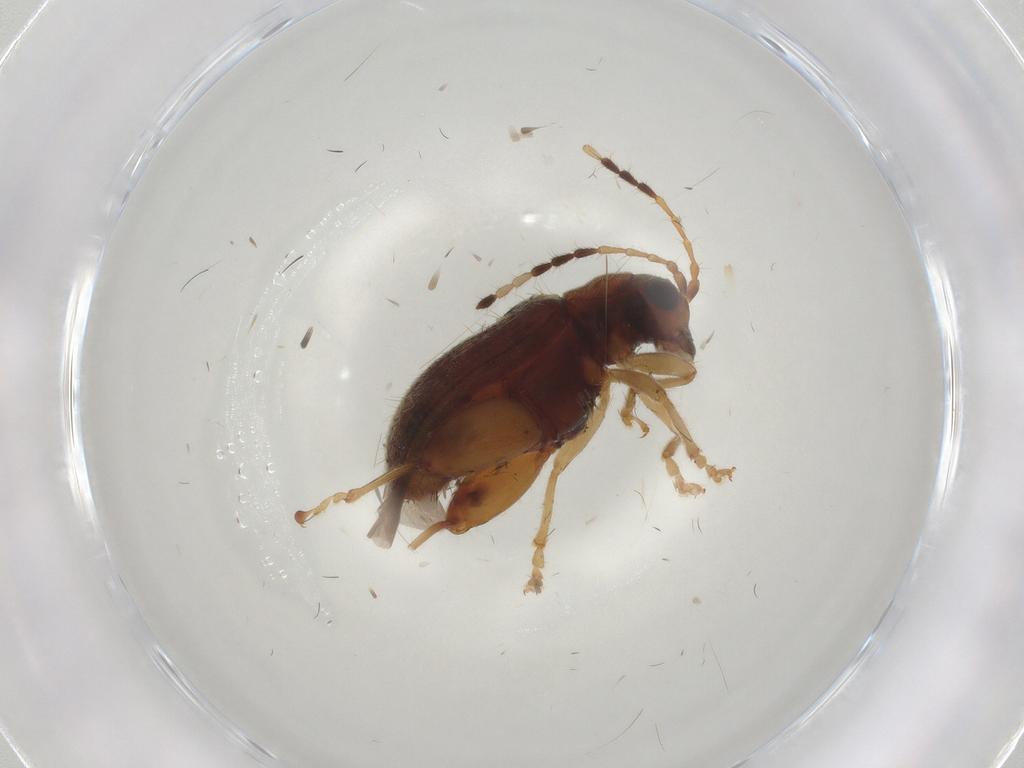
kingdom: Animalia
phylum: Arthropoda
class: Insecta
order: Coleoptera
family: Chrysomelidae
